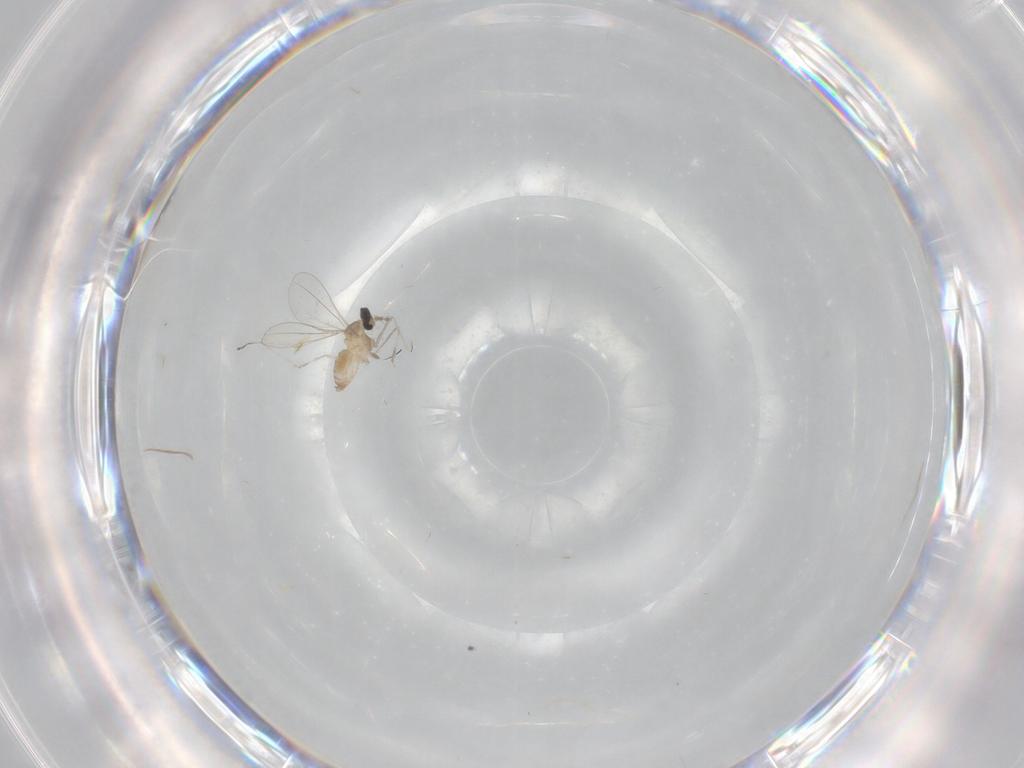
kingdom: Animalia
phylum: Arthropoda
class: Insecta
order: Diptera
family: Cecidomyiidae
